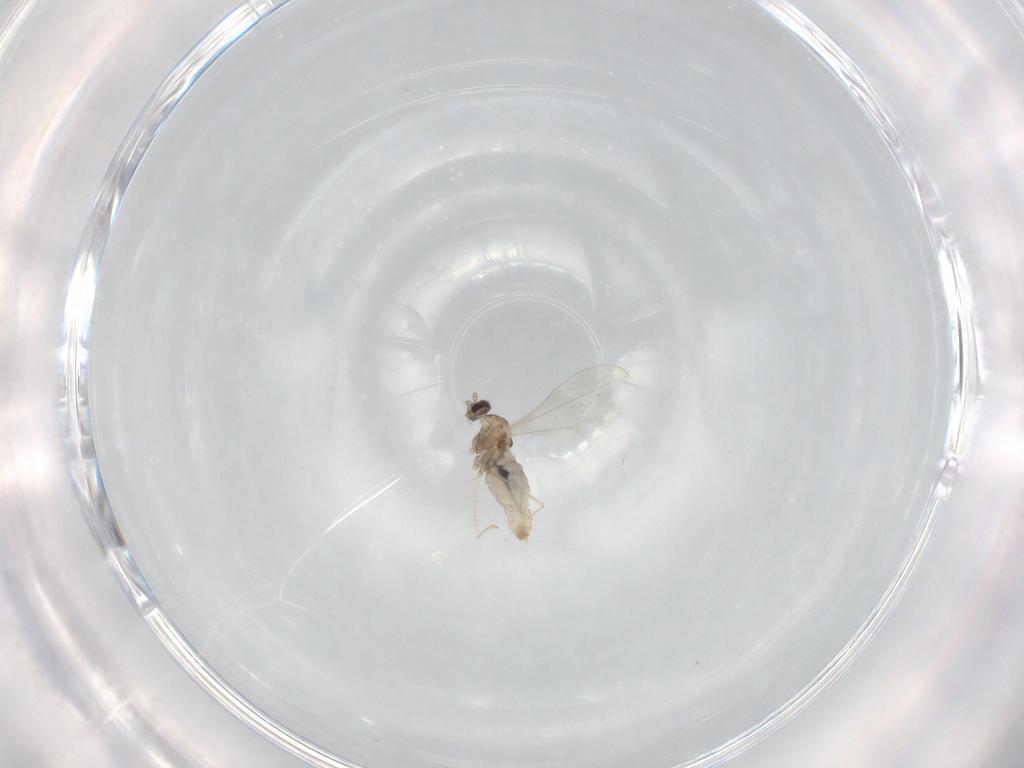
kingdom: Animalia
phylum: Arthropoda
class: Insecta
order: Diptera
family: Cecidomyiidae
